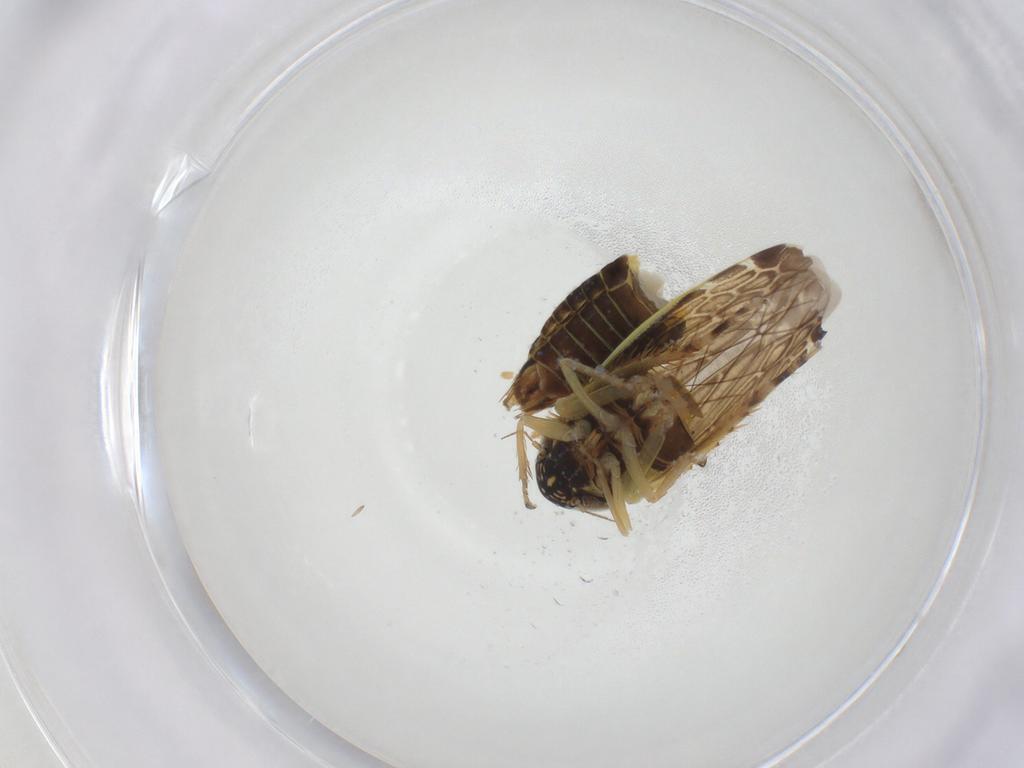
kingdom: Animalia
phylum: Arthropoda
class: Insecta
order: Hemiptera
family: Cicadellidae
